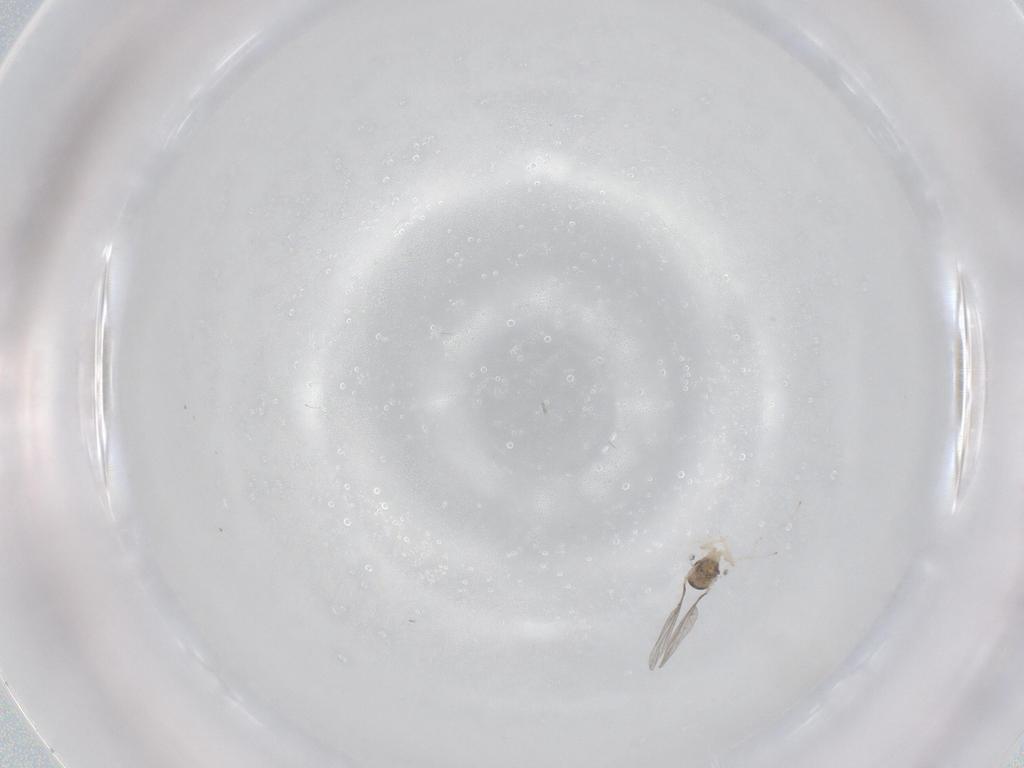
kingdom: Animalia
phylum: Arthropoda
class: Insecta
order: Diptera
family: Cecidomyiidae
